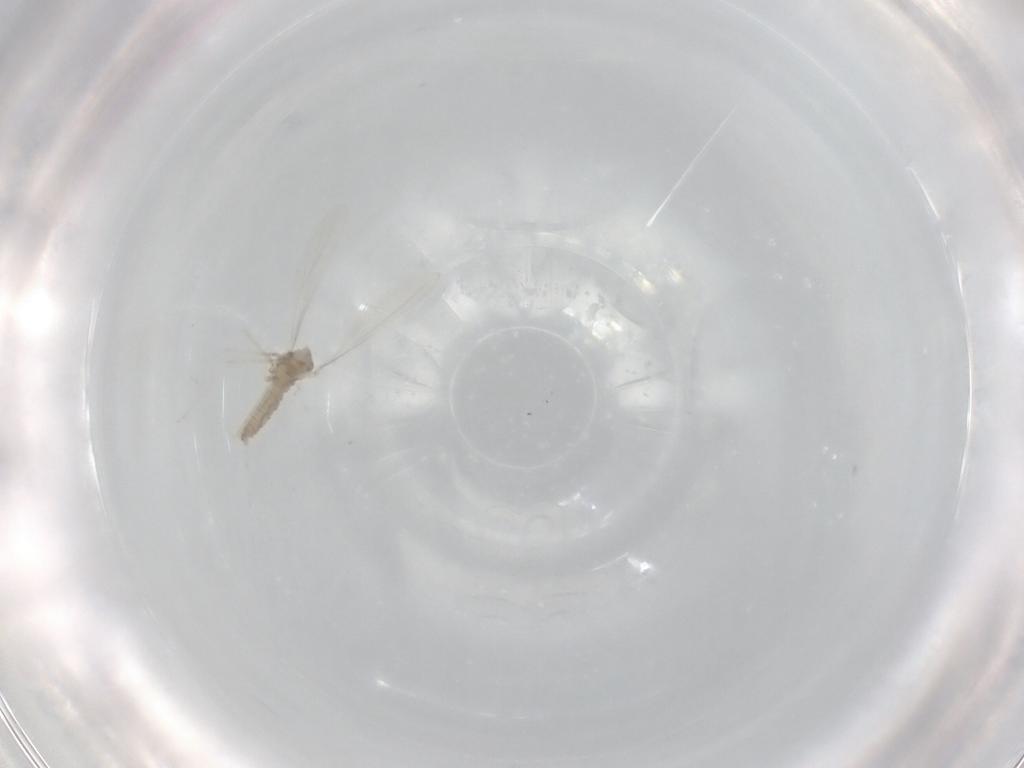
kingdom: Animalia
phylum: Arthropoda
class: Insecta
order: Diptera
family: Cecidomyiidae
